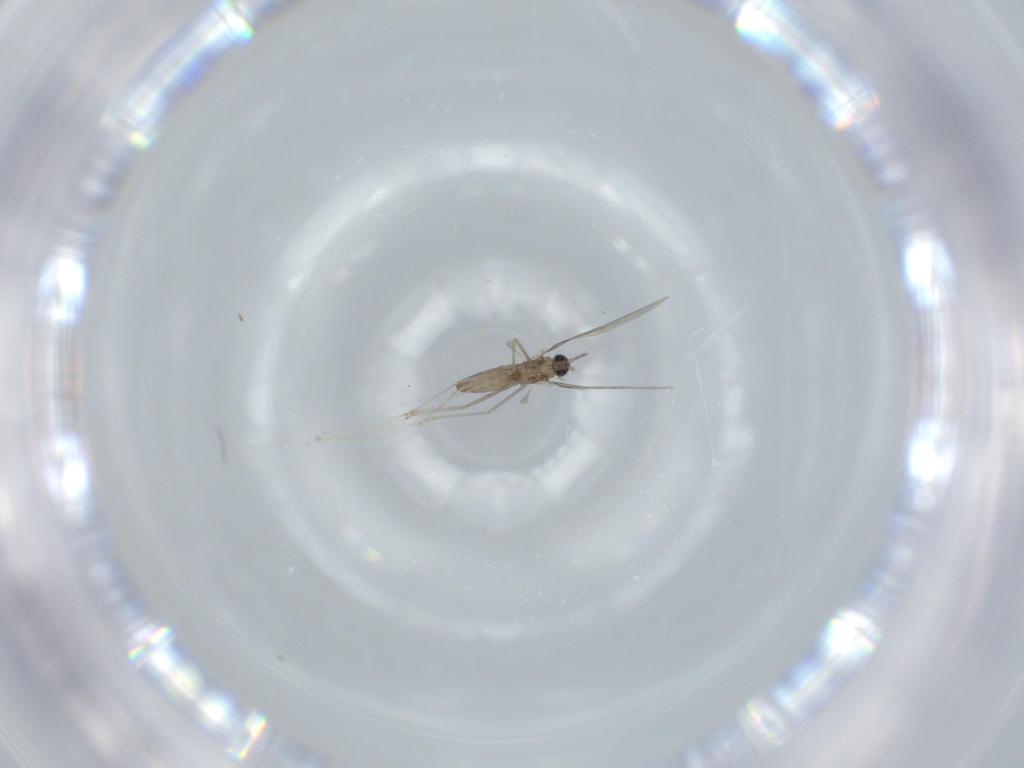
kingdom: Animalia
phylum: Arthropoda
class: Insecta
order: Diptera
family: Cecidomyiidae
